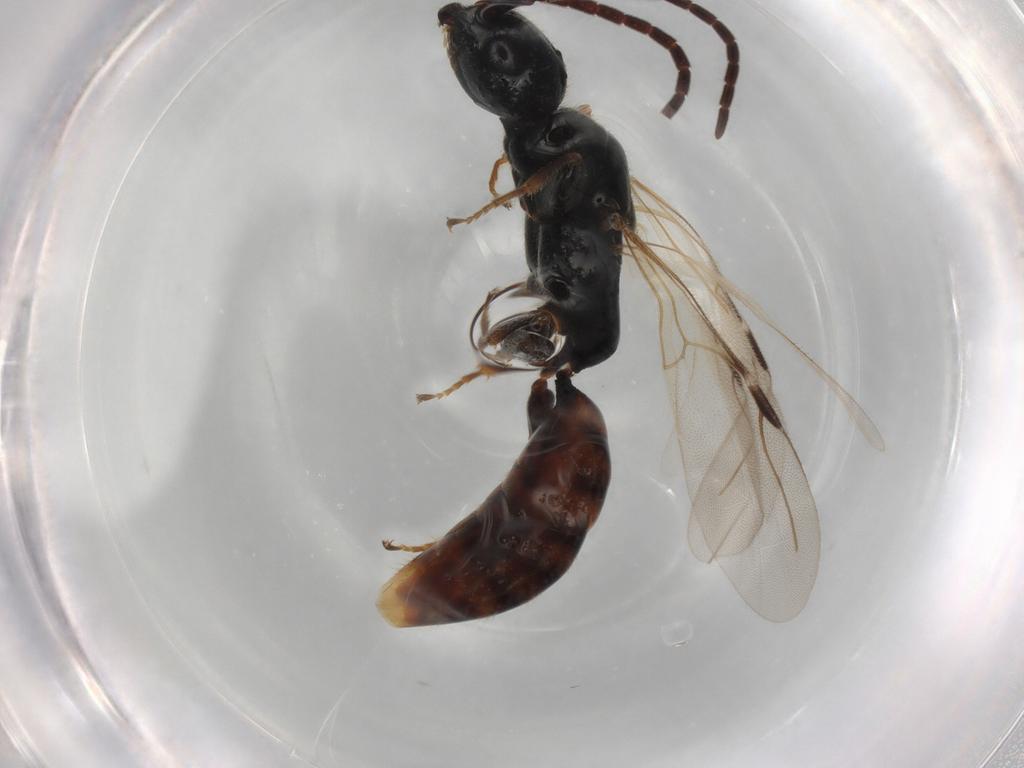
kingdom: Animalia
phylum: Arthropoda
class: Insecta
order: Hymenoptera
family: Bethylidae
